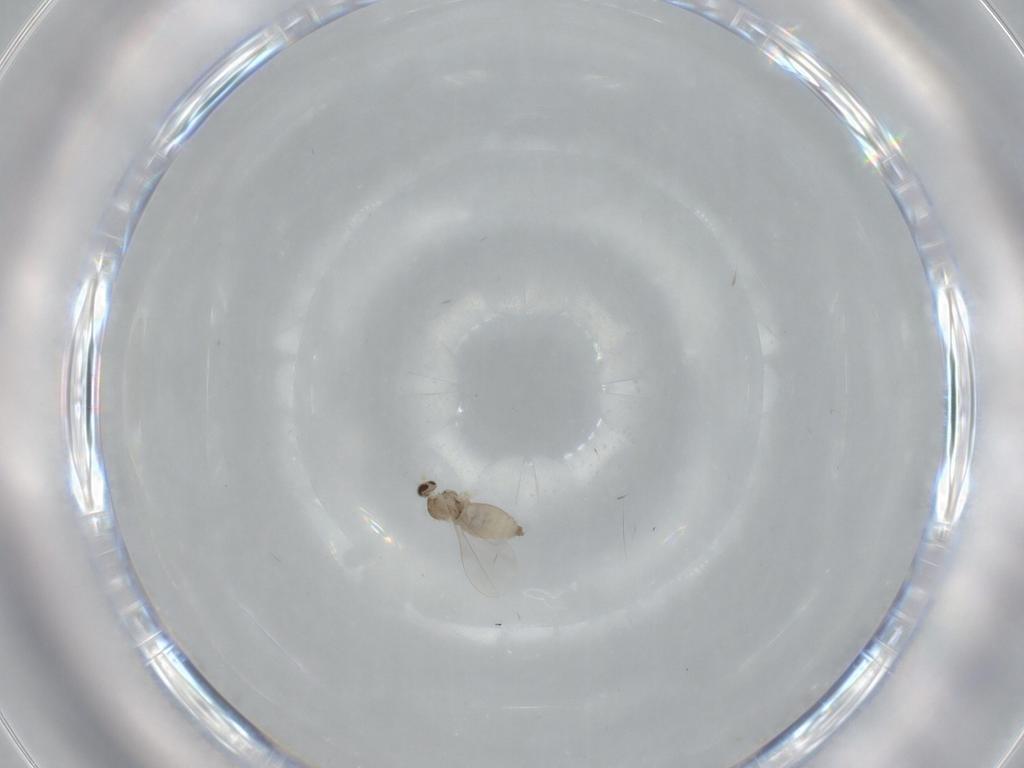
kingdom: Animalia
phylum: Arthropoda
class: Insecta
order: Diptera
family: Cecidomyiidae
